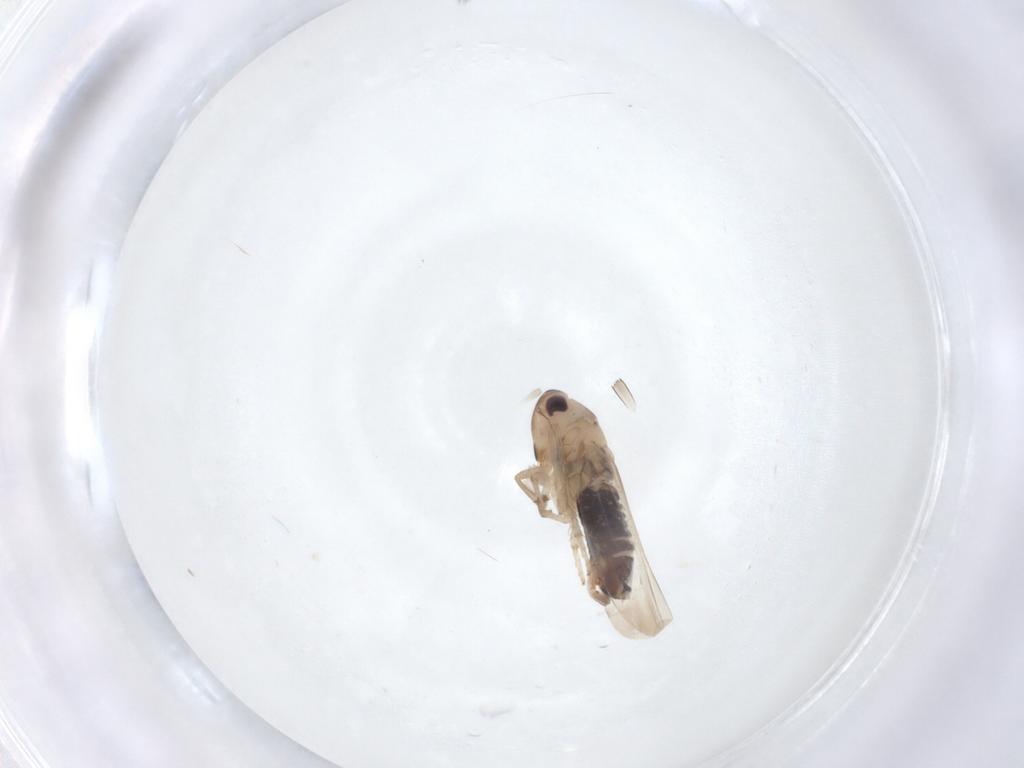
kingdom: Animalia
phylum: Arthropoda
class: Insecta
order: Hemiptera
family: Cicadellidae
